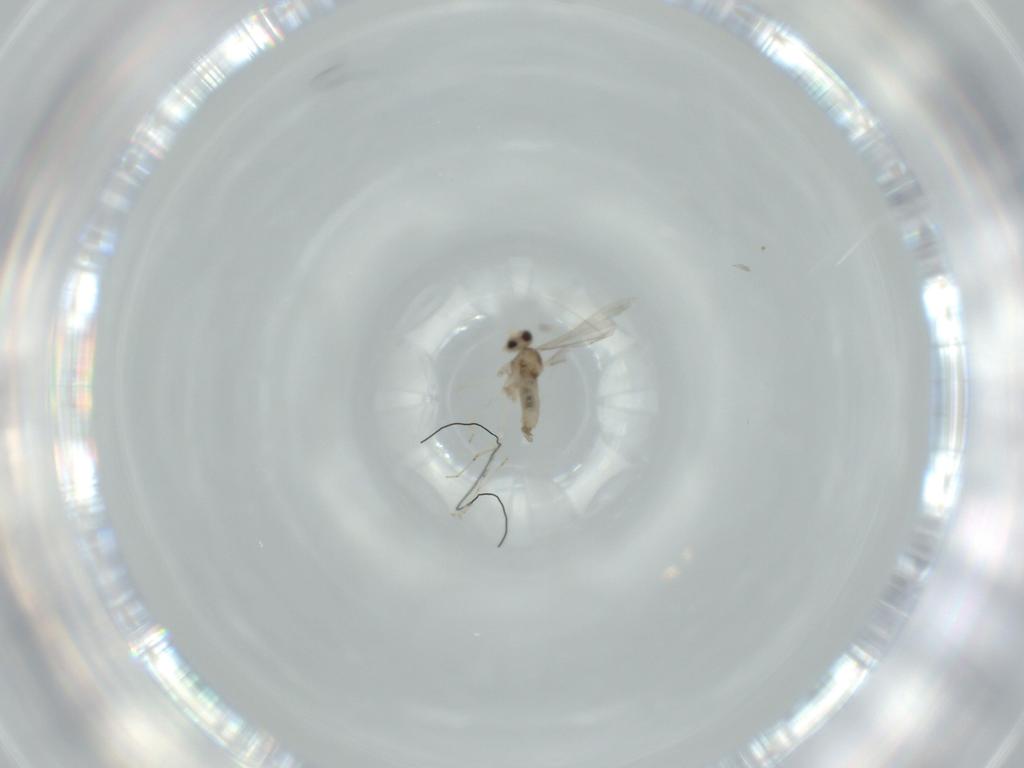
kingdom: Animalia
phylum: Arthropoda
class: Insecta
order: Diptera
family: Cecidomyiidae
